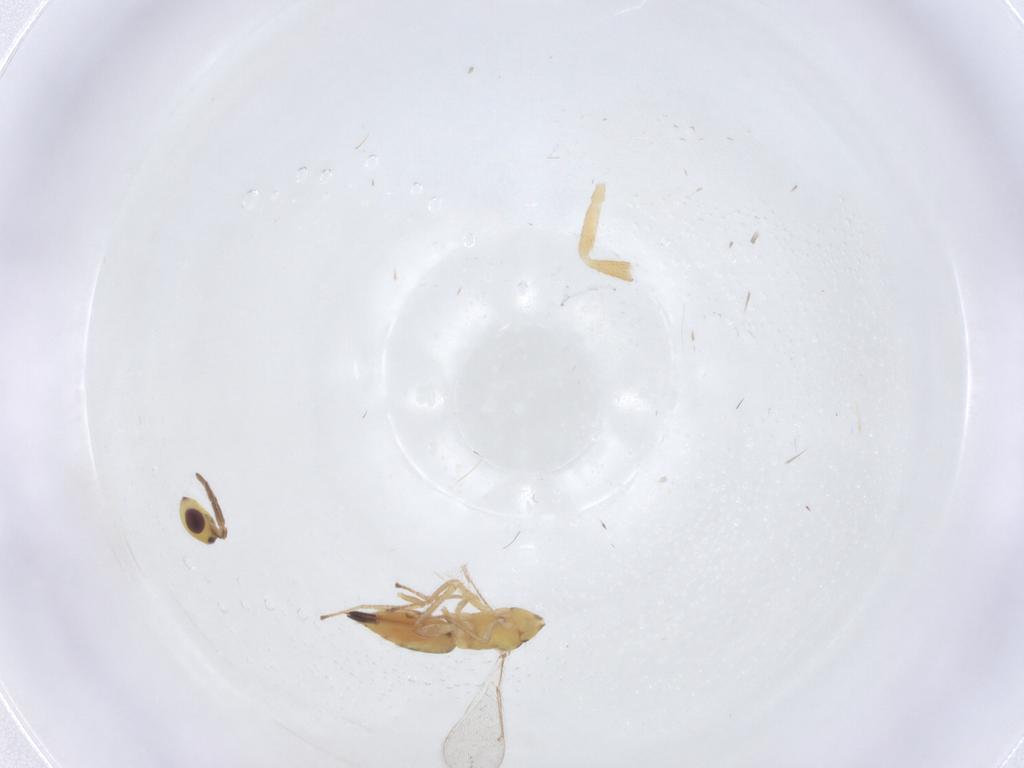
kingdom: Animalia
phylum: Arthropoda
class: Insecta
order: Hymenoptera
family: Eulophidae
